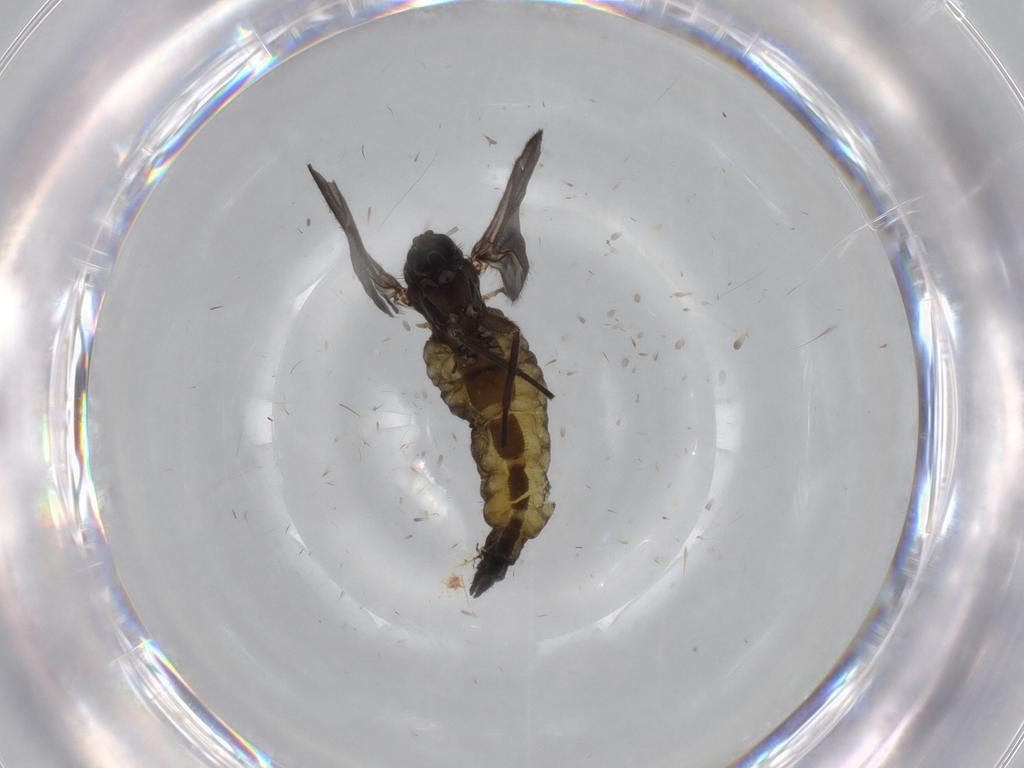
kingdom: Animalia
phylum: Arthropoda
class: Insecta
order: Diptera
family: Sciaridae
